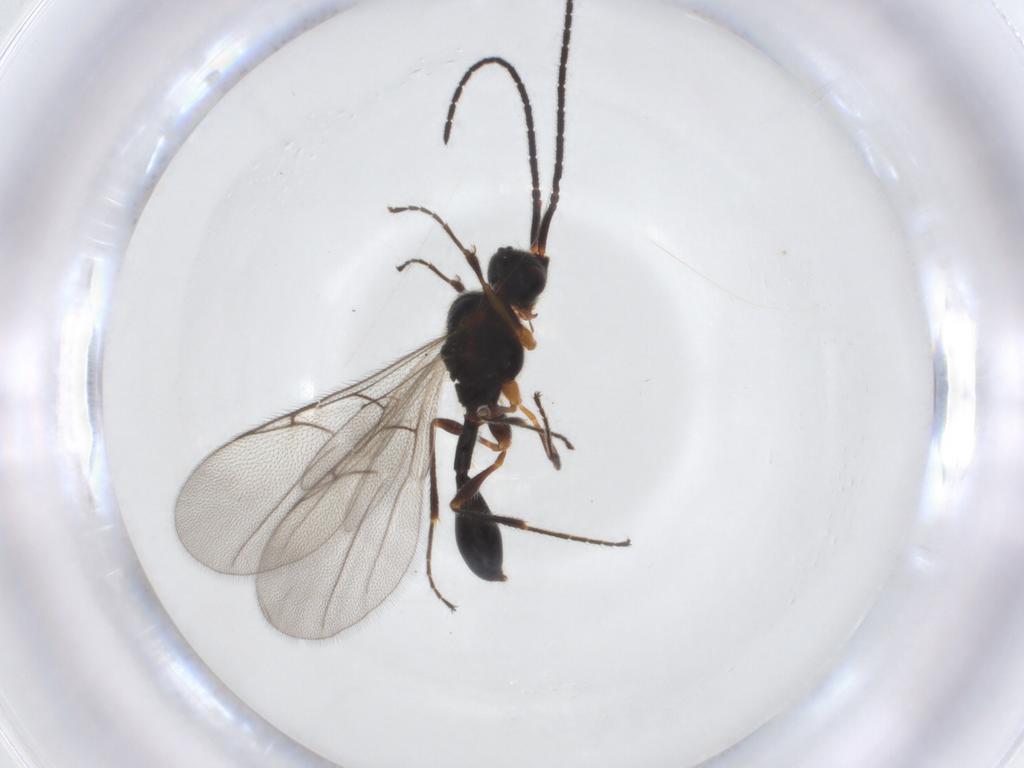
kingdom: Animalia
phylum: Arthropoda
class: Insecta
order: Hymenoptera
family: Diapriidae
